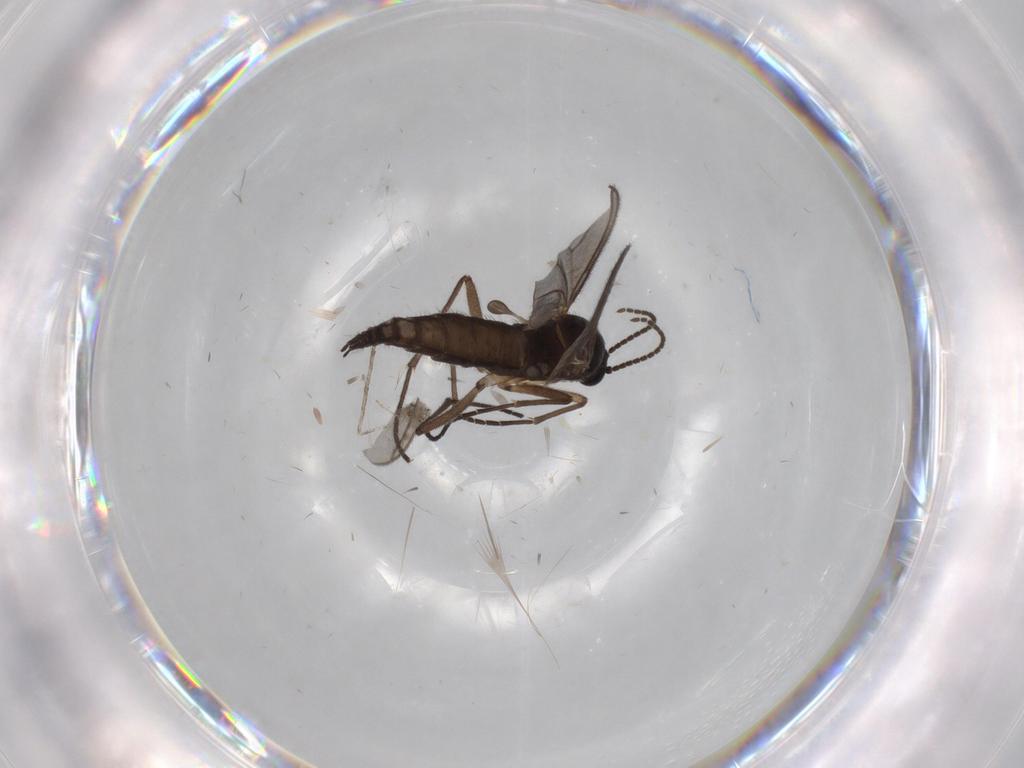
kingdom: Animalia
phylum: Arthropoda
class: Insecta
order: Diptera
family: Sciaridae
